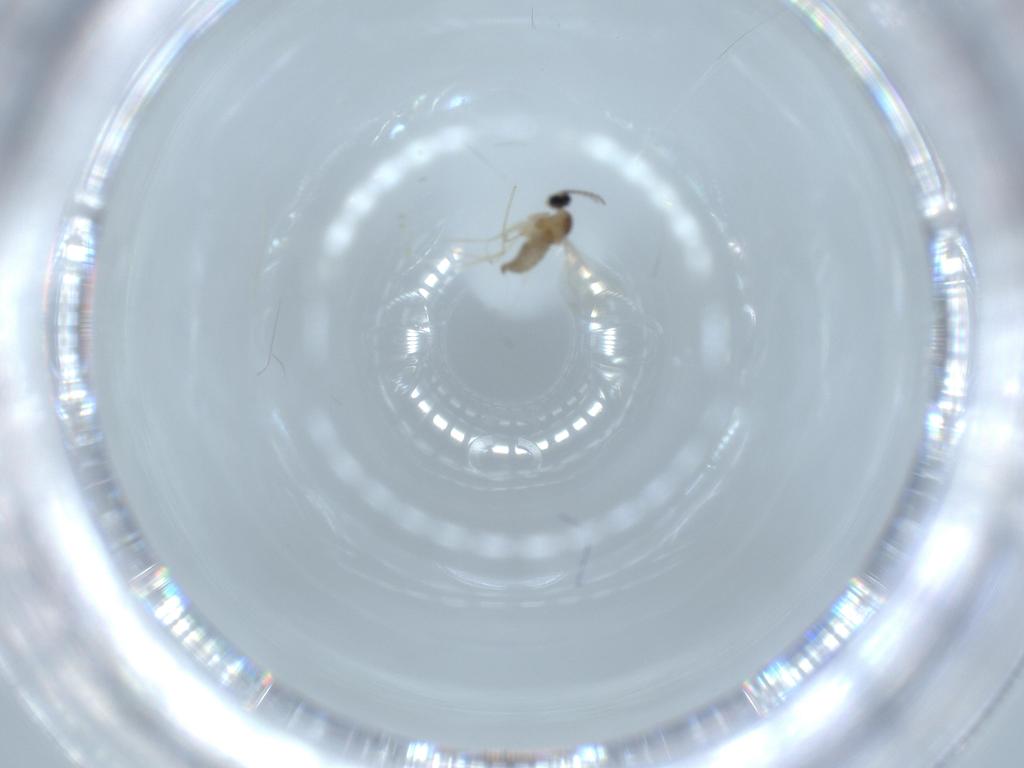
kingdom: Animalia
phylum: Arthropoda
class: Insecta
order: Diptera
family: Cecidomyiidae
